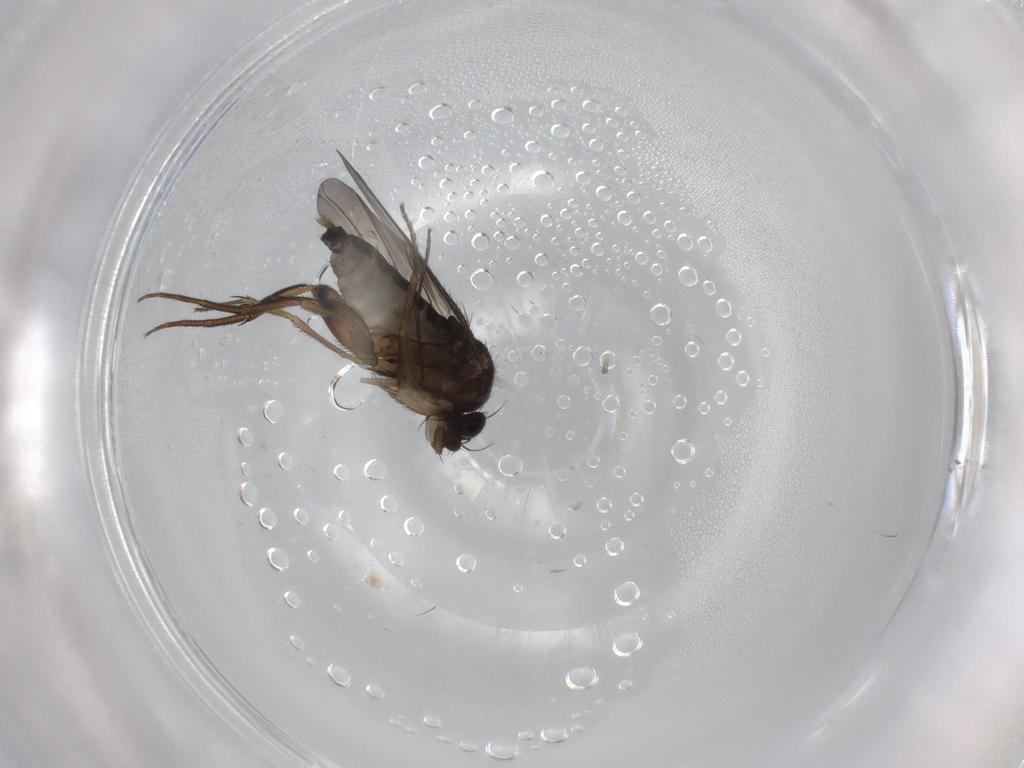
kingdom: Animalia
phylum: Arthropoda
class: Insecta
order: Diptera
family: Phoridae
